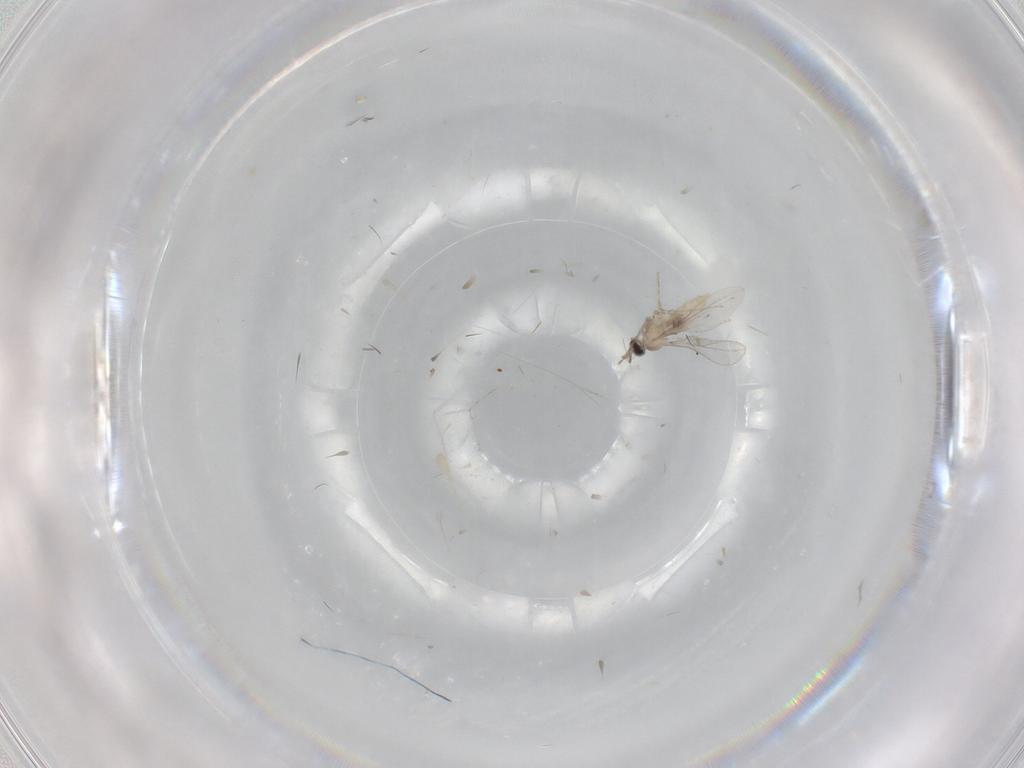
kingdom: Animalia
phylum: Arthropoda
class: Insecta
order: Diptera
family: Cecidomyiidae
